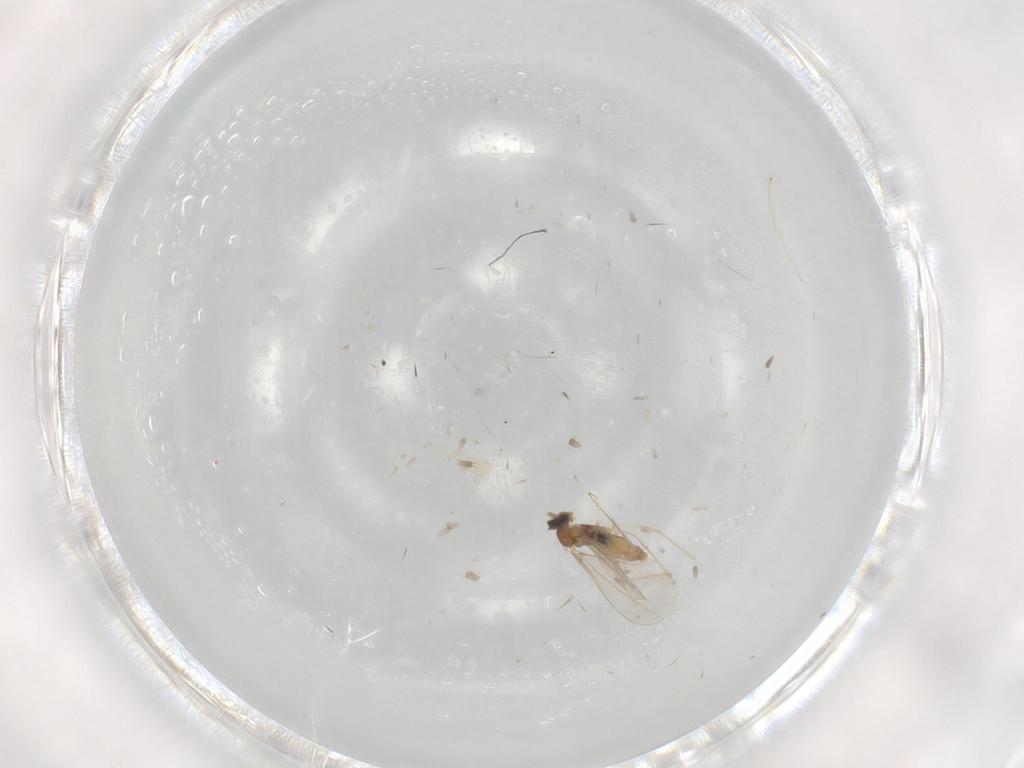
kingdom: Animalia
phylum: Arthropoda
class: Insecta
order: Diptera
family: Cecidomyiidae
